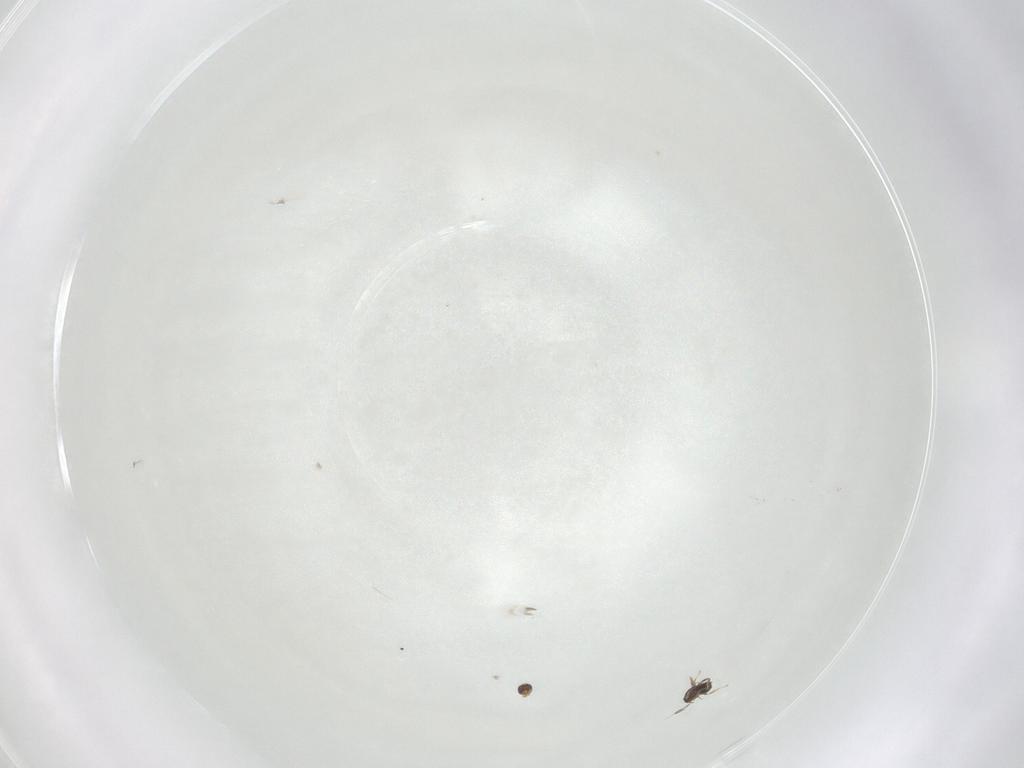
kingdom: Animalia
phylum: Arthropoda
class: Insecta
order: Hymenoptera
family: Trichogrammatidae
